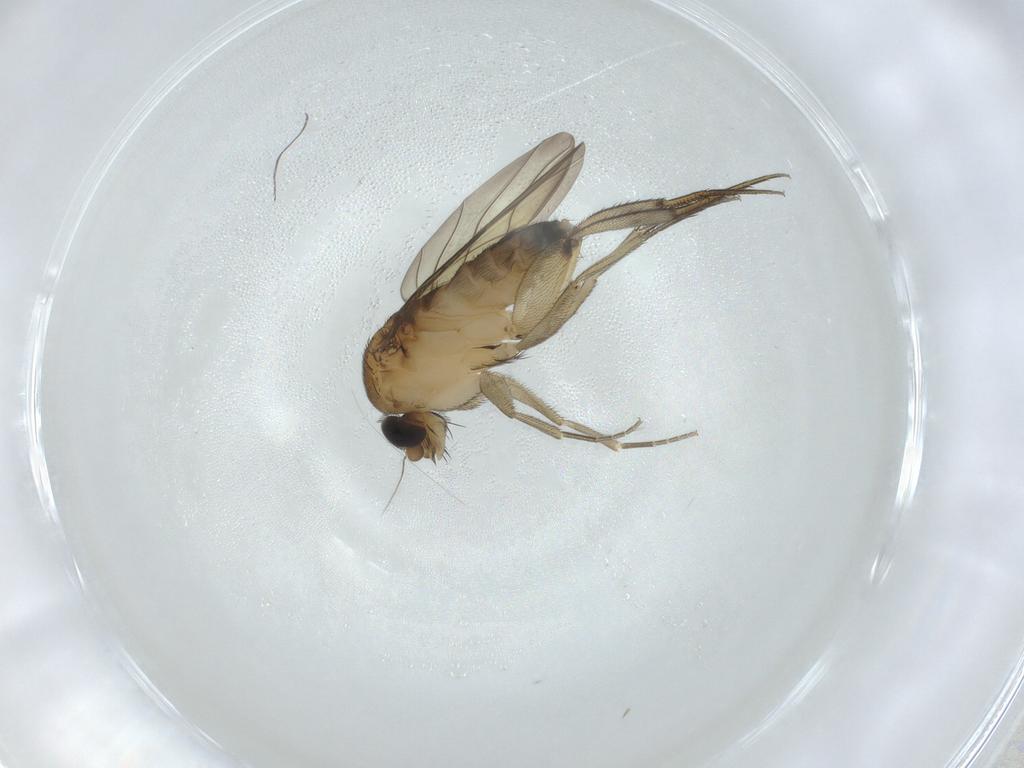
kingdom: Animalia
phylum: Arthropoda
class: Insecta
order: Diptera
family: Phoridae
